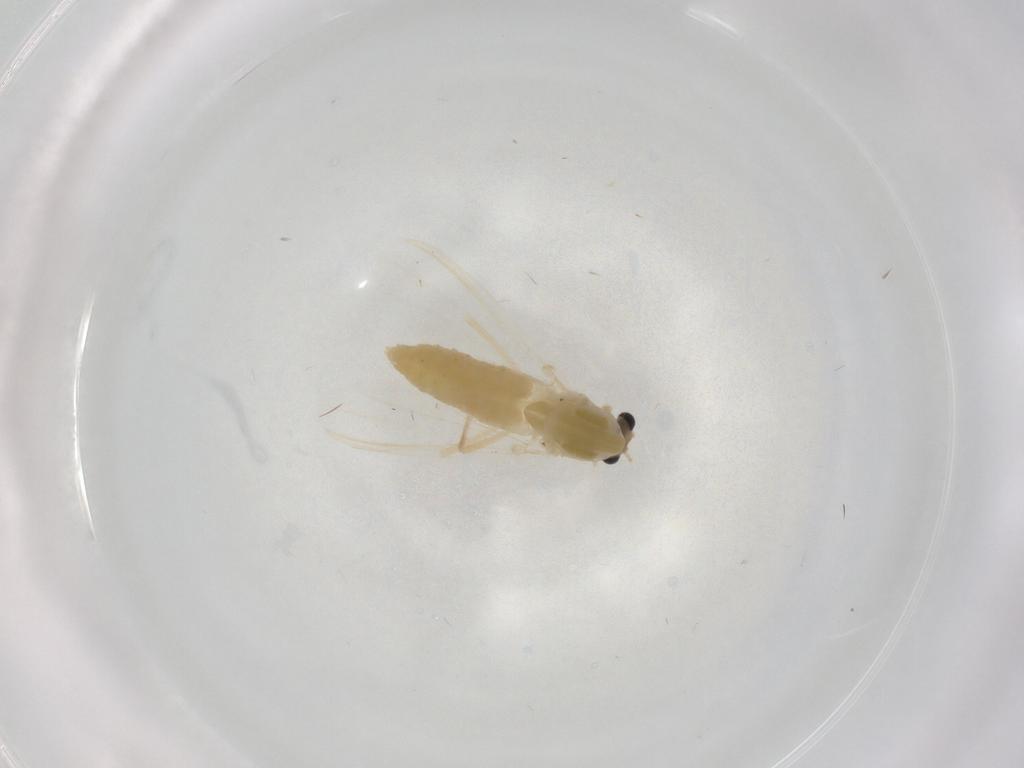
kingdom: Animalia
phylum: Arthropoda
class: Insecta
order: Diptera
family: Chironomidae
